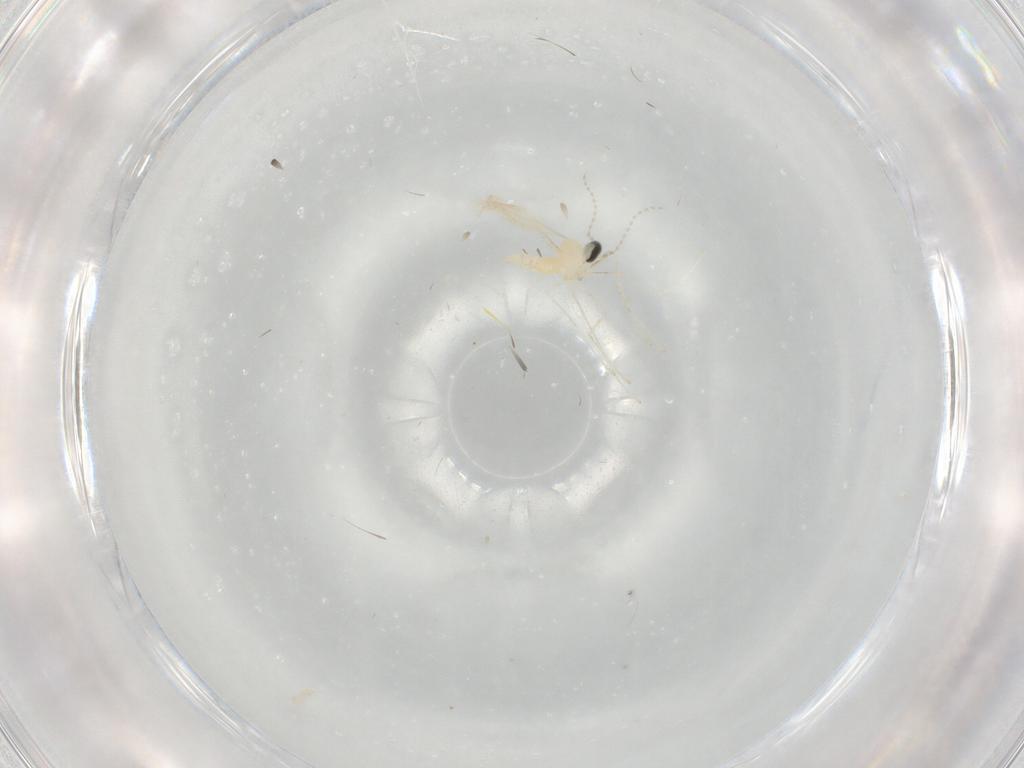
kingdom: Animalia
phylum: Arthropoda
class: Insecta
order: Diptera
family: Cecidomyiidae
